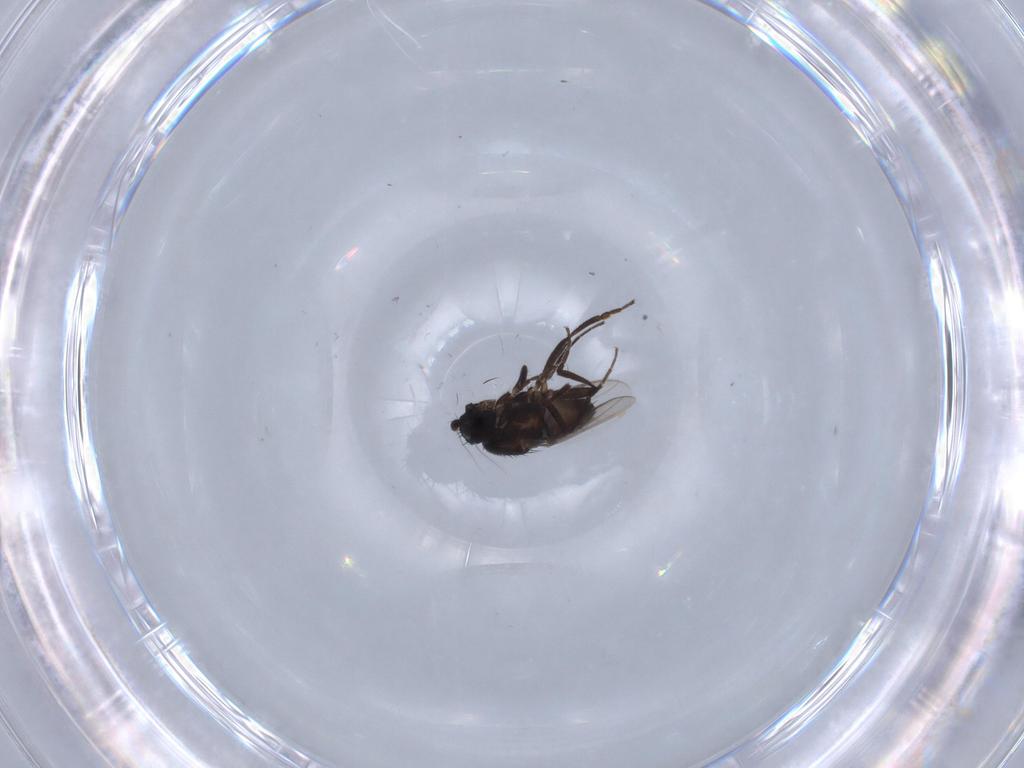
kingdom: Animalia
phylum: Arthropoda
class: Insecta
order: Diptera
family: Sphaeroceridae
